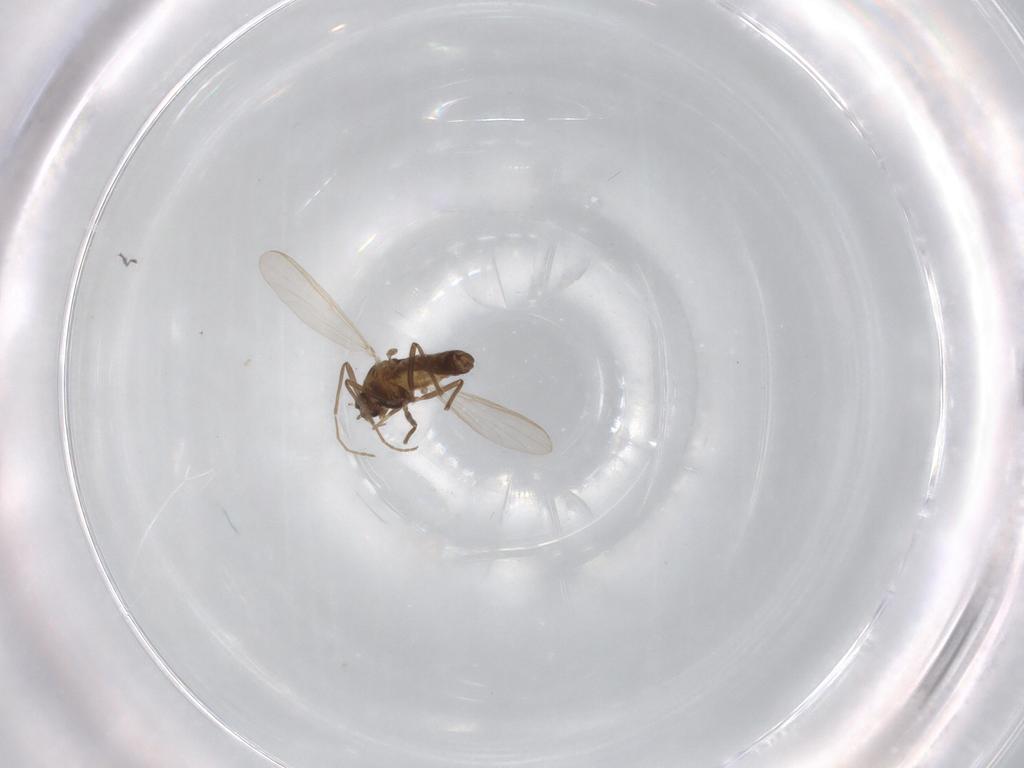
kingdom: Animalia
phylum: Arthropoda
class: Insecta
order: Diptera
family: Chironomidae
